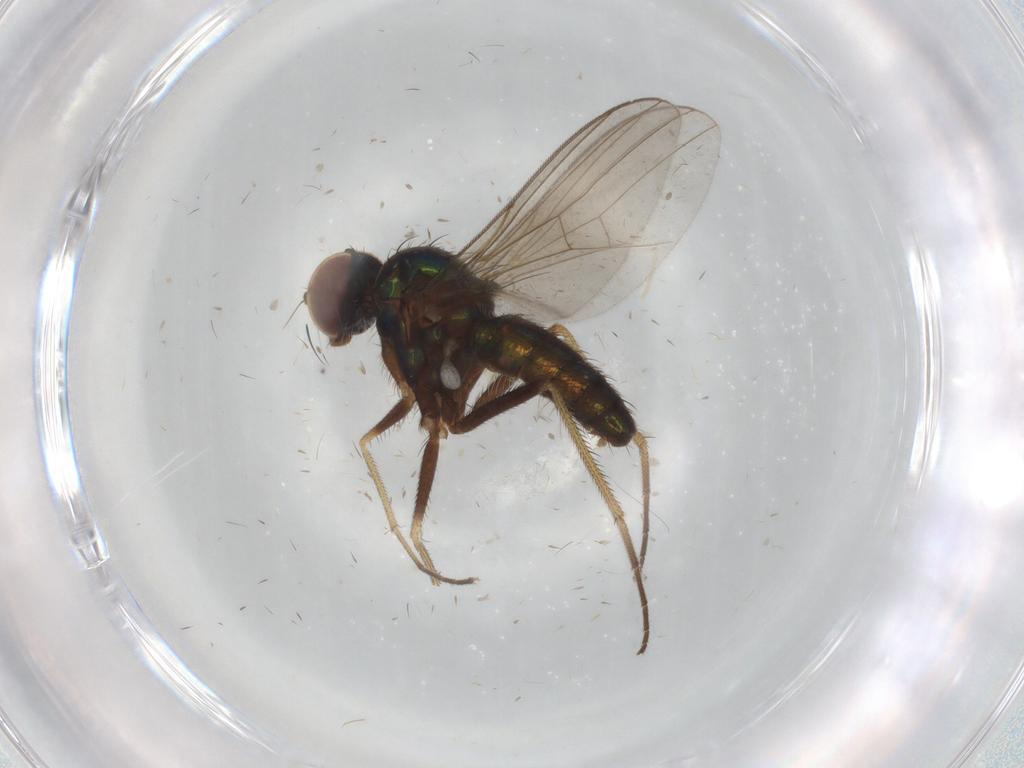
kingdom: Animalia
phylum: Arthropoda
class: Insecta
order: Diptera
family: Dolichopodidae
